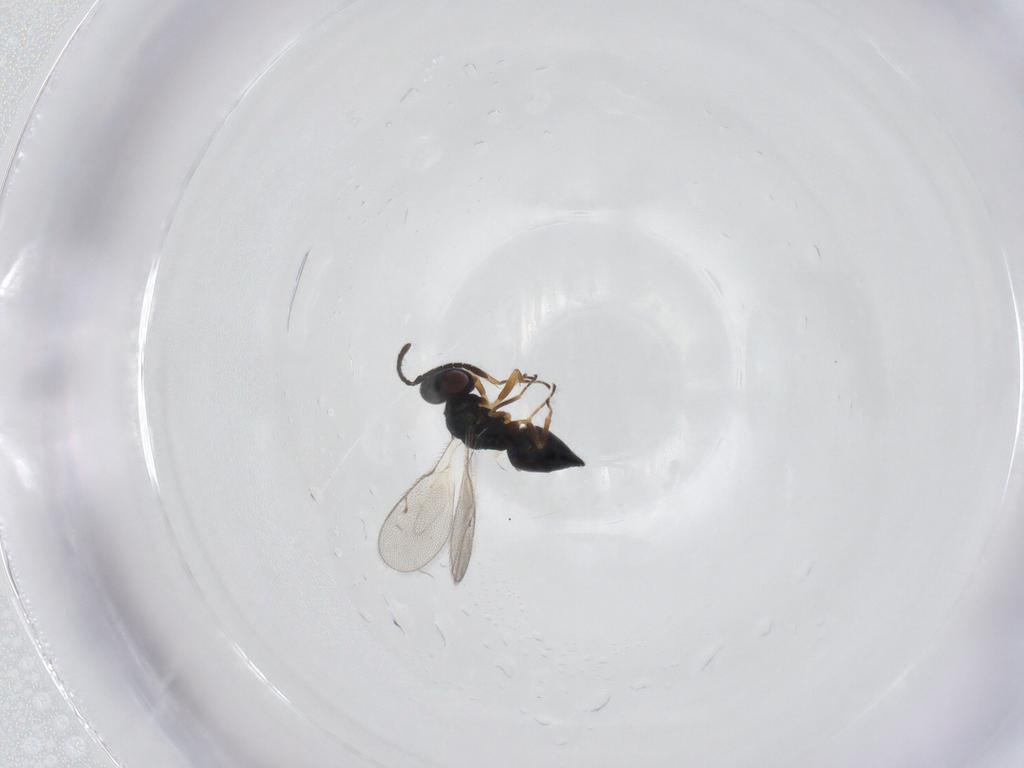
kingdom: Animalia
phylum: Arthropoda
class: Insecta
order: Hymenoptera
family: Pteromalidae
